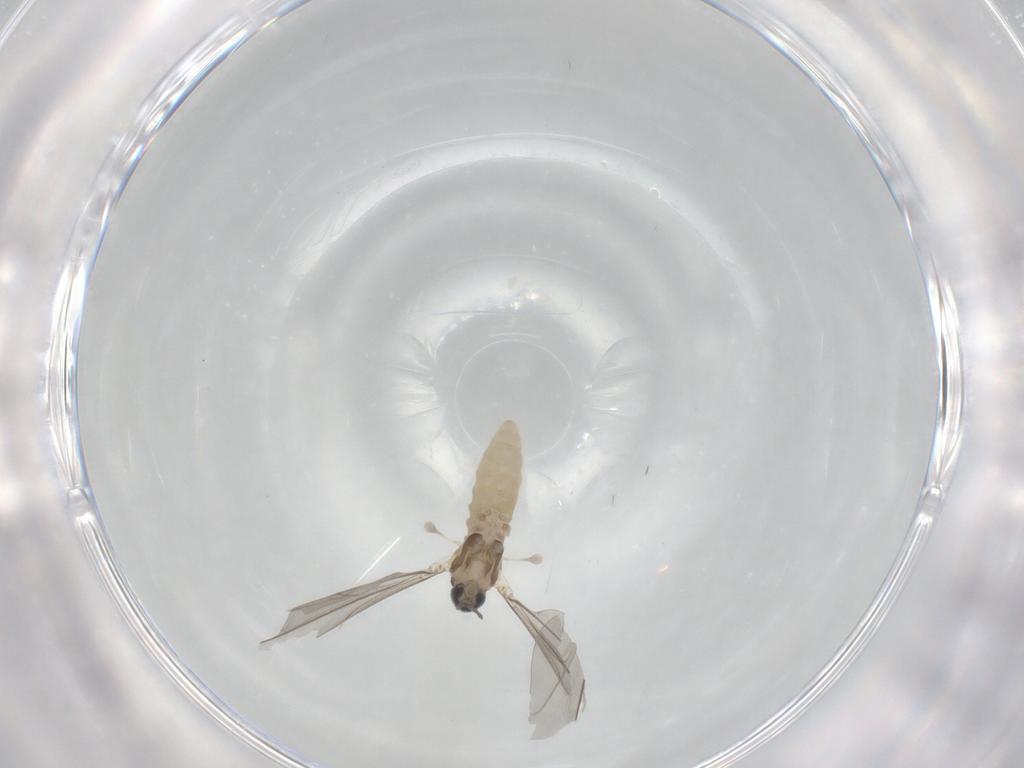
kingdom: Animalia
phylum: Arthropoda
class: Insecta
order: Diptera
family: Cecidomyiidae
